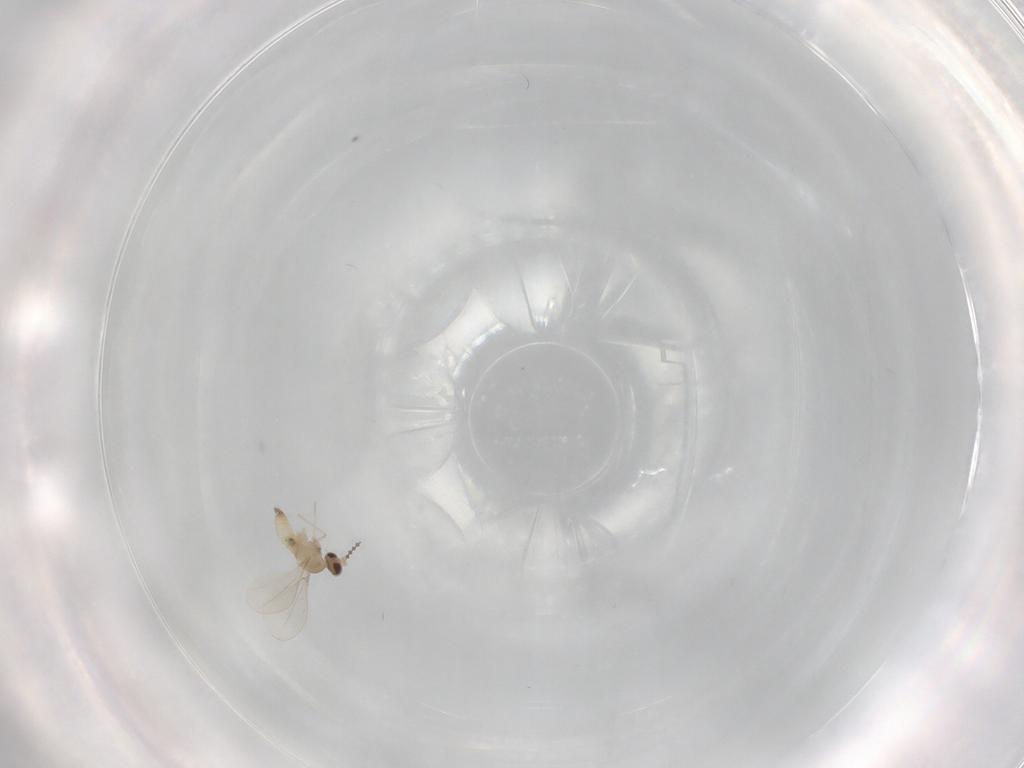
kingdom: Animalia
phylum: Arthropoda
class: Insecta
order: Diptera
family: Cecidomyiidae
